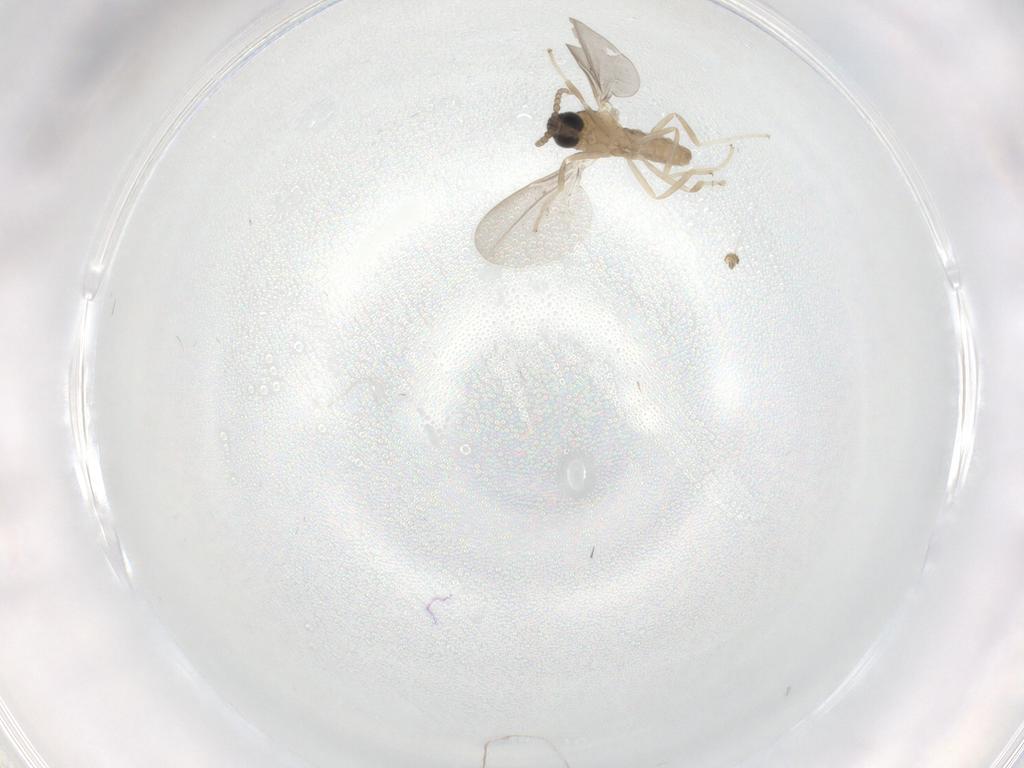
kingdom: Animalia
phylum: Arthropoda
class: Insecta
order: Diptera
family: Cecidomyiidae
